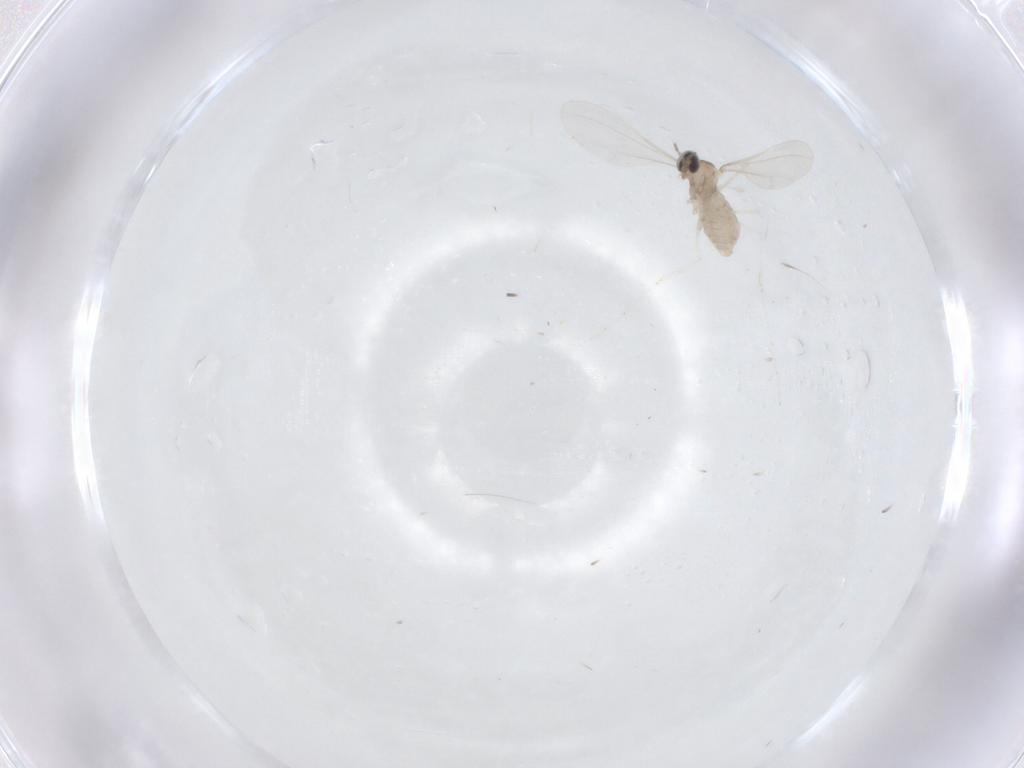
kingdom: Animalia
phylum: Arthropoda
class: Insecta
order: Diptera
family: Cecidomyiidae
